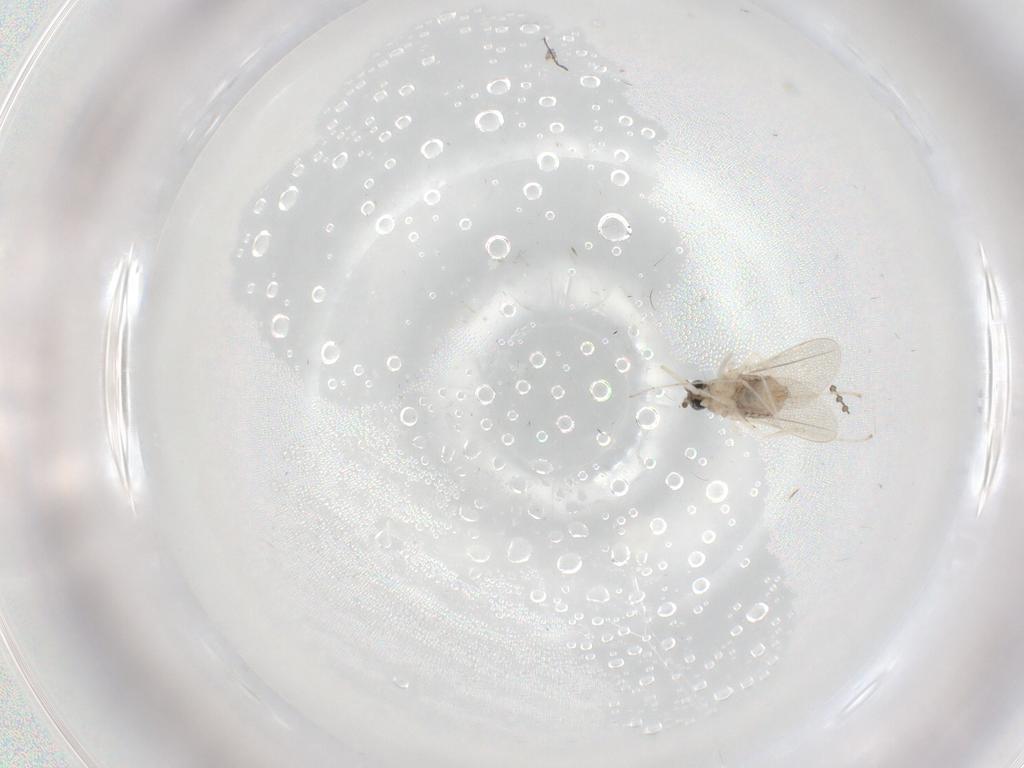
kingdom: Animalia
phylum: Arthropoda
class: Insecta
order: Diptera
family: Cecidomyiidae
